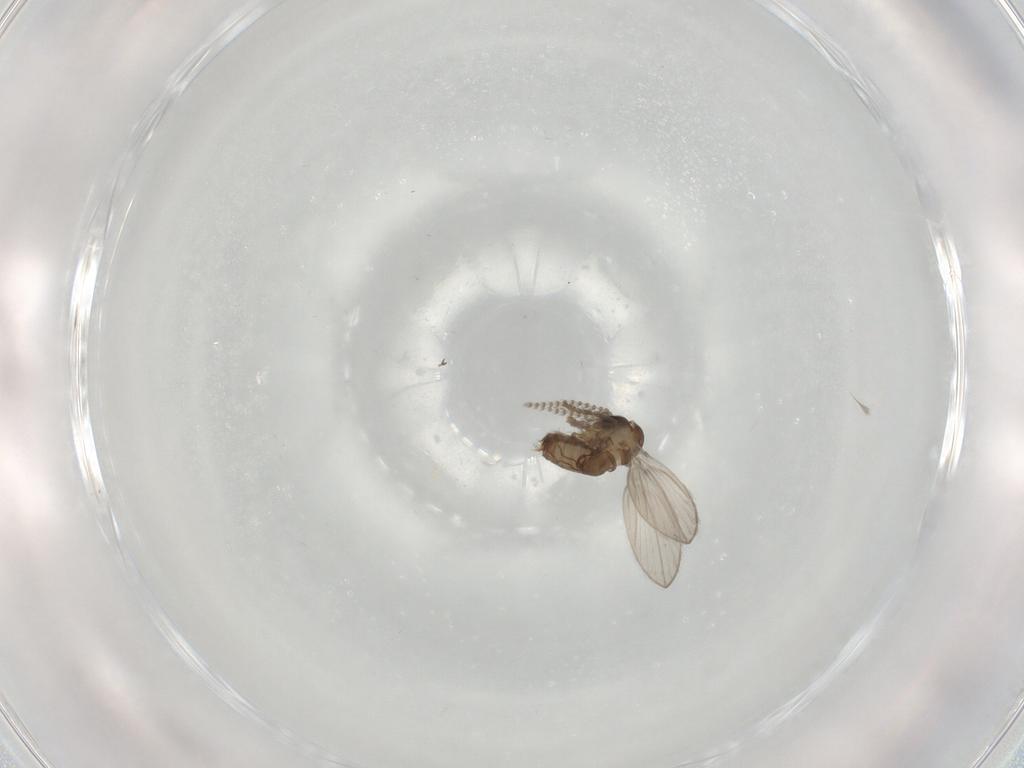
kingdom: Animalia
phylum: Arthropoda
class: Insecta
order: Diptera
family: Psychodidae
